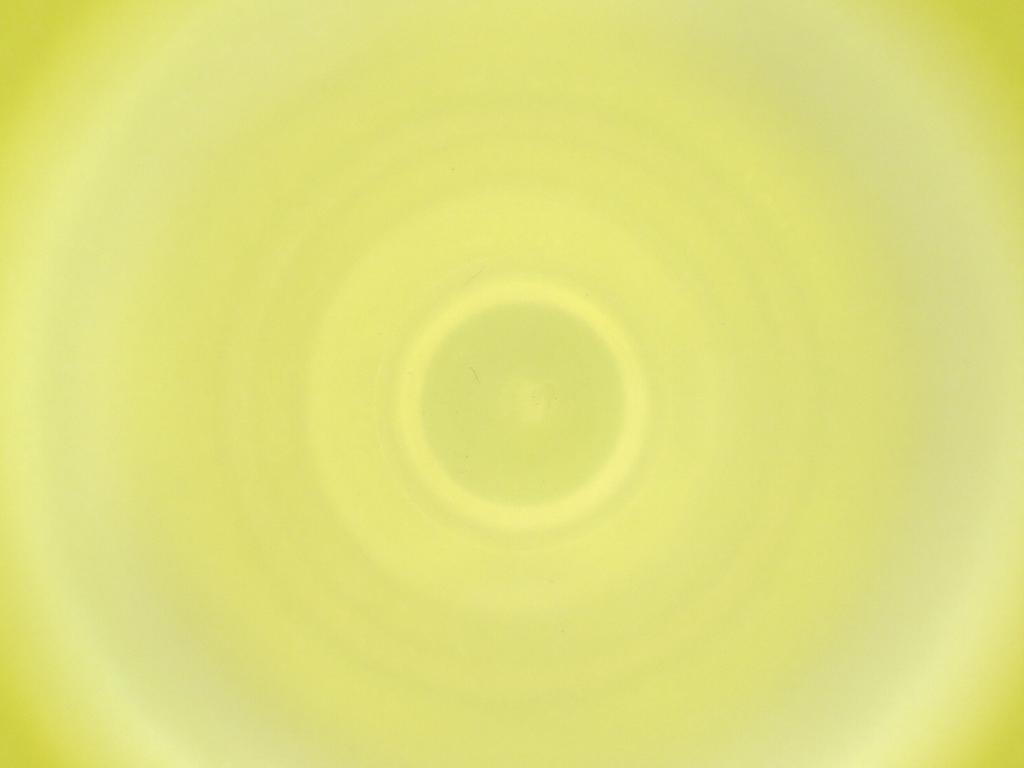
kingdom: Animalia
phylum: Arthropoda
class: Insecta
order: Diptera
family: Cecidomyiidae
